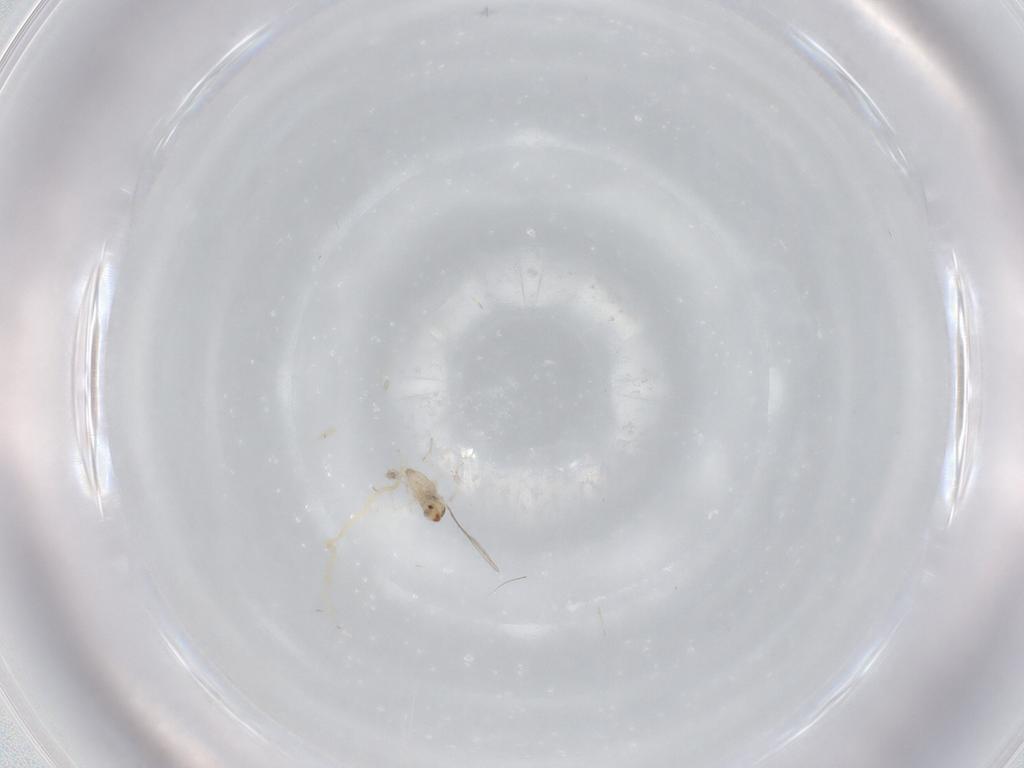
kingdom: Animalia
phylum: Arthropoda
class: Insecta
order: Diptera
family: Cecidomyiidae
